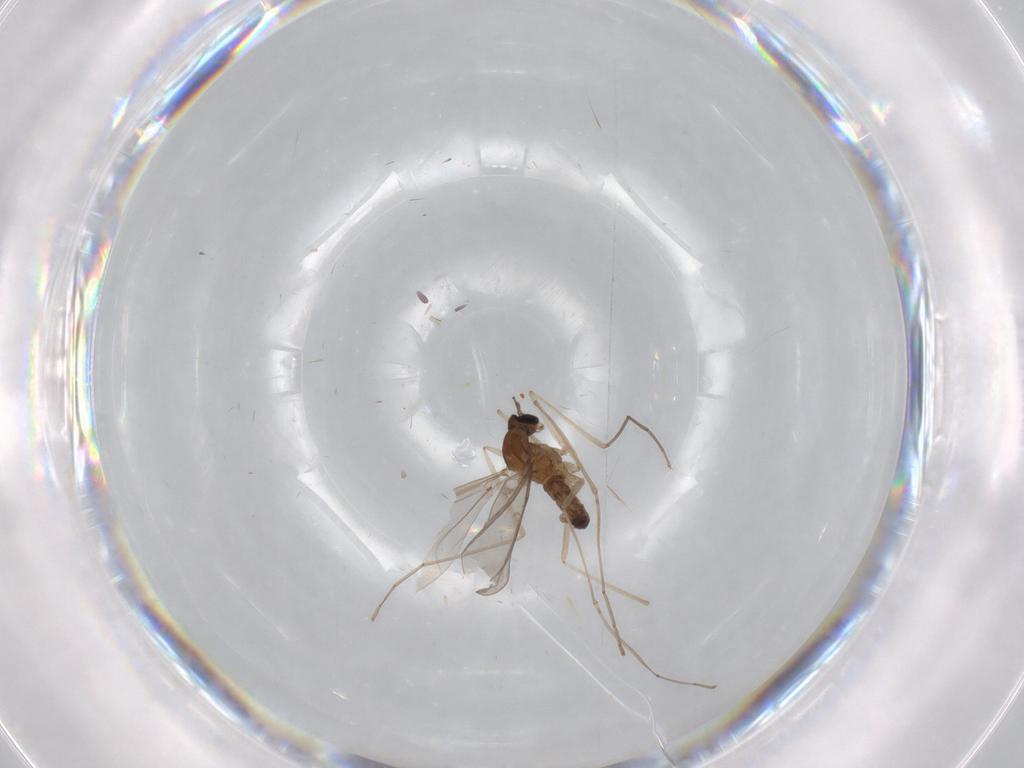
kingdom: Animalia
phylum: Arthropoda
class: Insecta
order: Diptera
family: Cecidomyiidae
